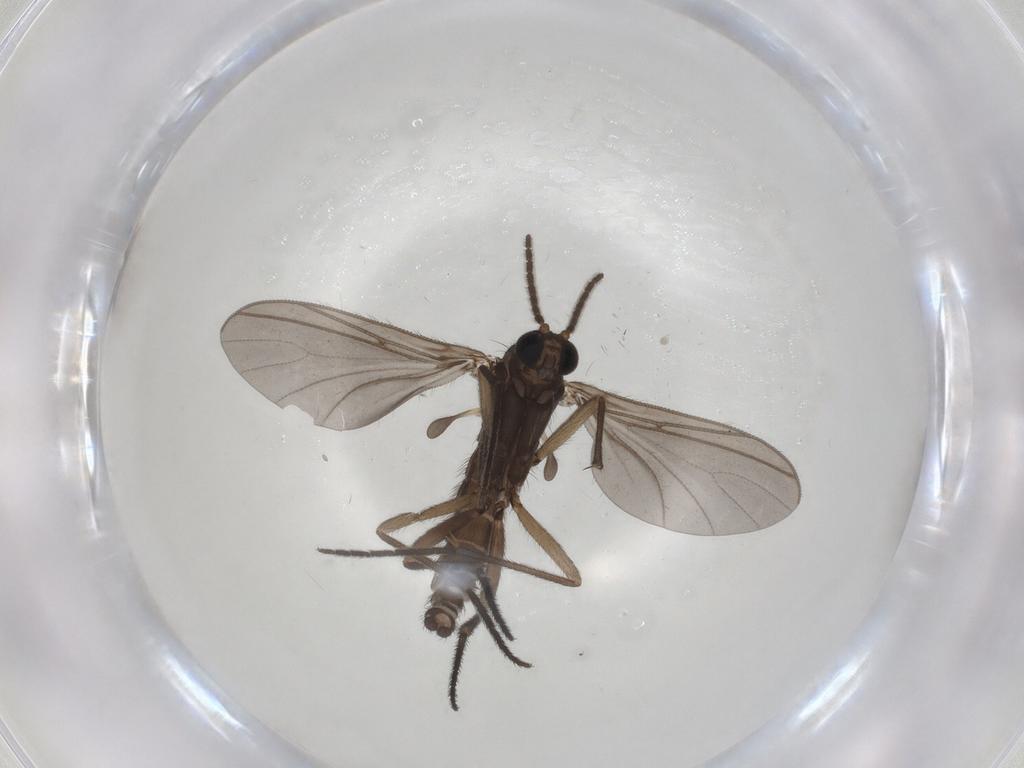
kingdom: Animalia
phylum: Arthropoda
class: Insecta
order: Diptera
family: Sciaridae
